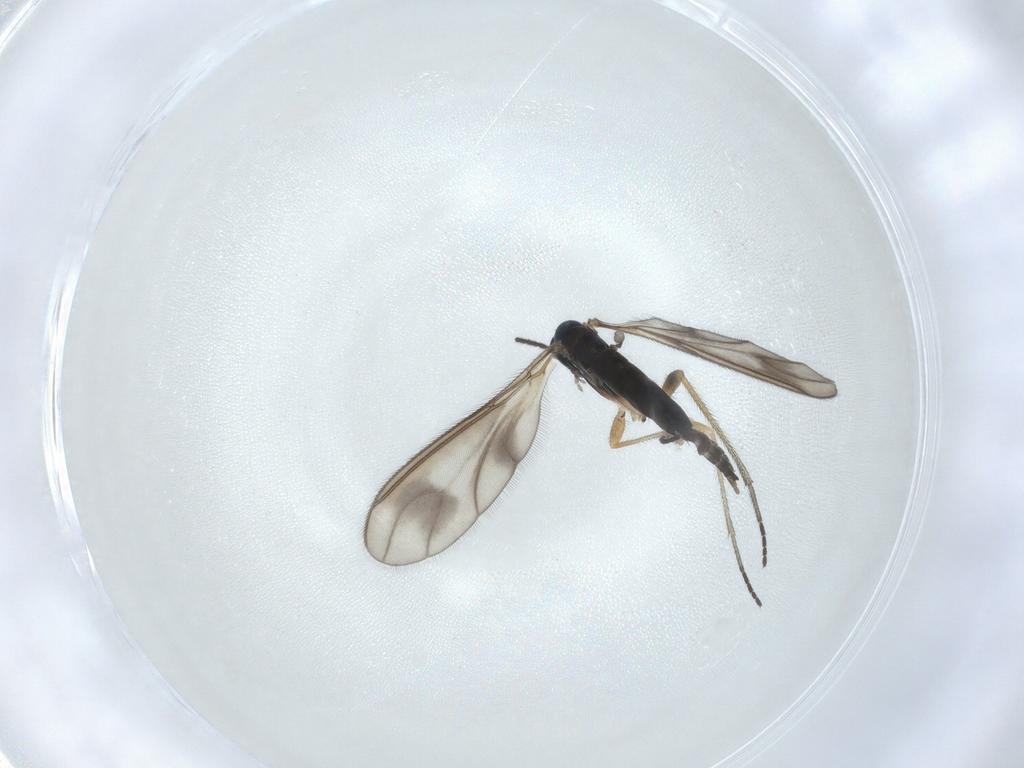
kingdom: Animalia
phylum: Arthropoda
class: Insecta
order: Diptera
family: Sciaridae
